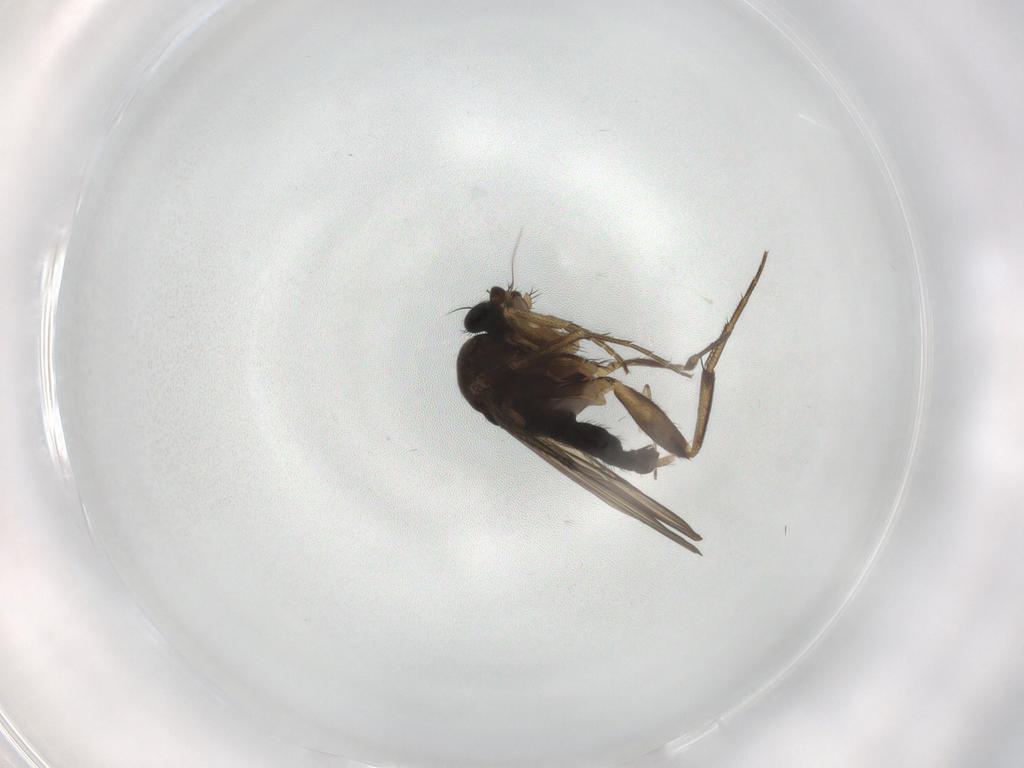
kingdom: Animalia
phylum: Arthropoda
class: Insecta
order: Diptera
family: Phoridae
